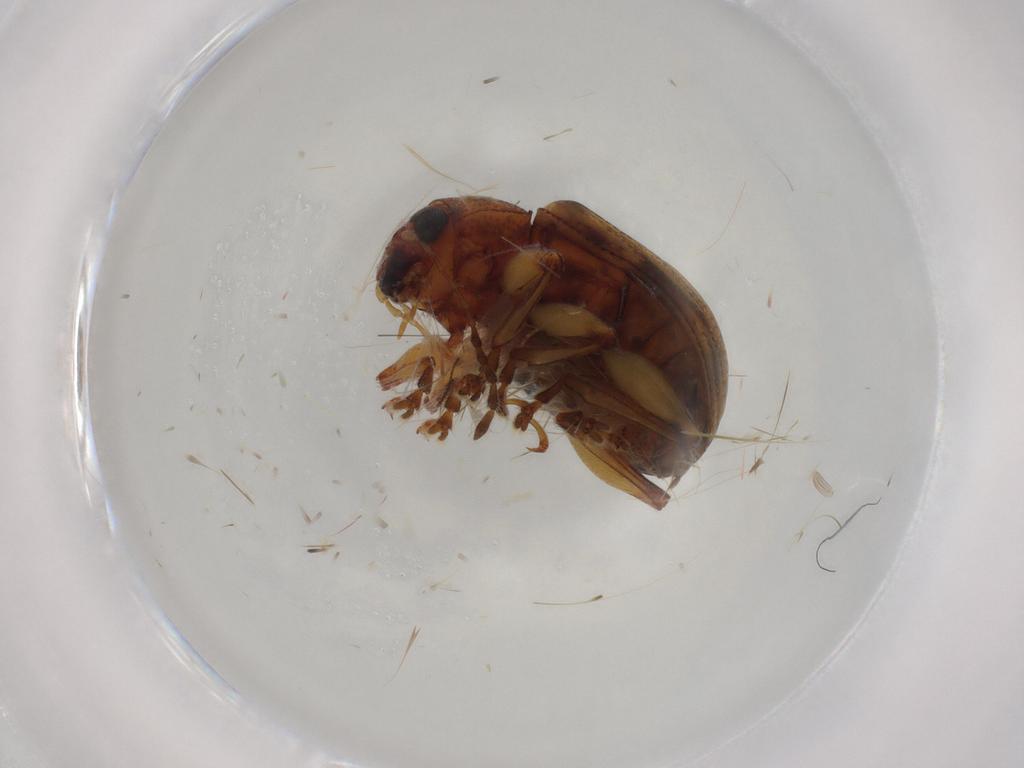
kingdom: Animalia
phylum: Arthropoda
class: Insecta
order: Coleoptera
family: Chrysomelidae
